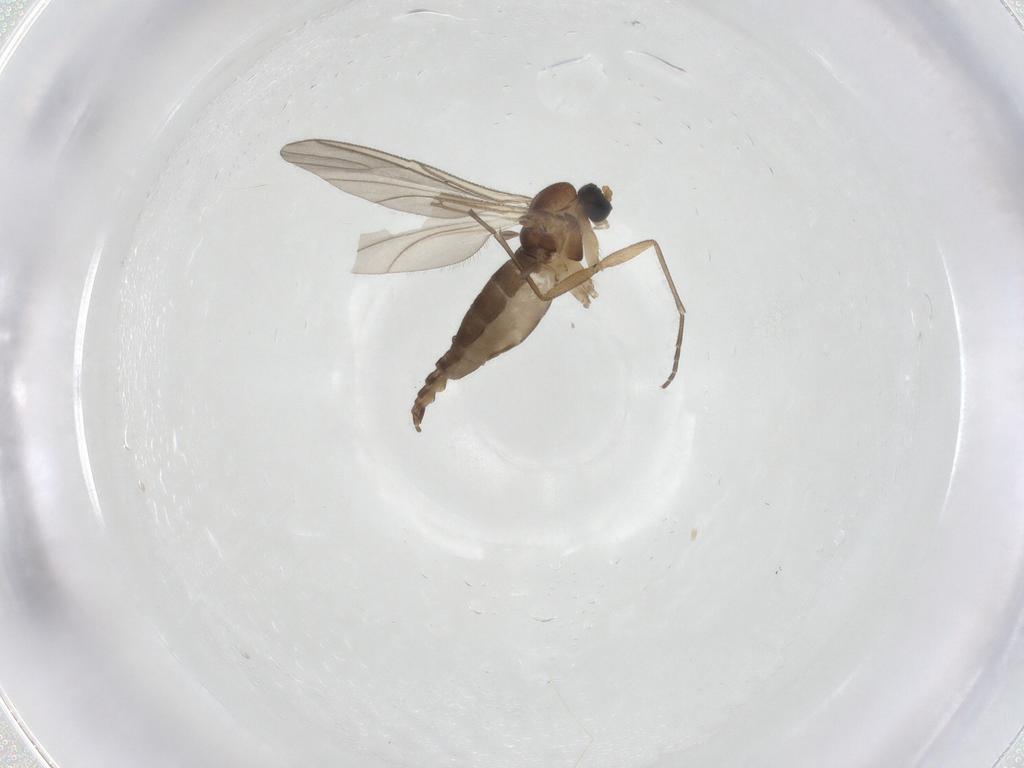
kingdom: Animalia
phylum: Arthropoda
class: Insecta
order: Diptera
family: Sciaridae
